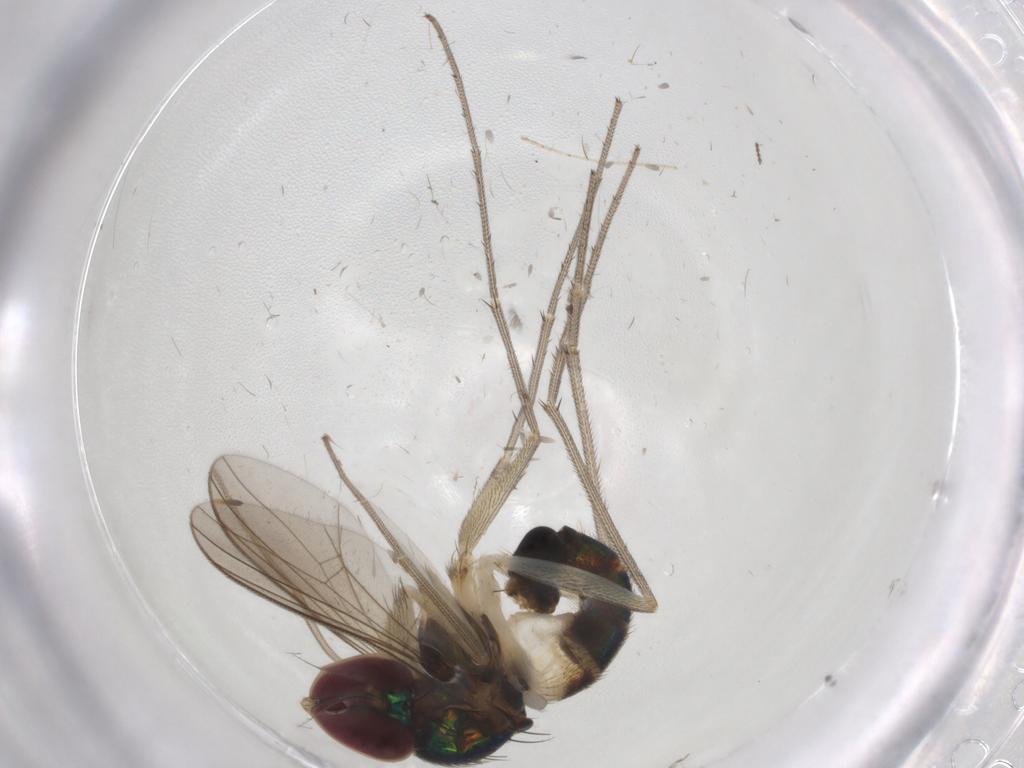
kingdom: Animalia
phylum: Arthropoda
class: Insecta
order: Diptera
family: Dolichopodidae
